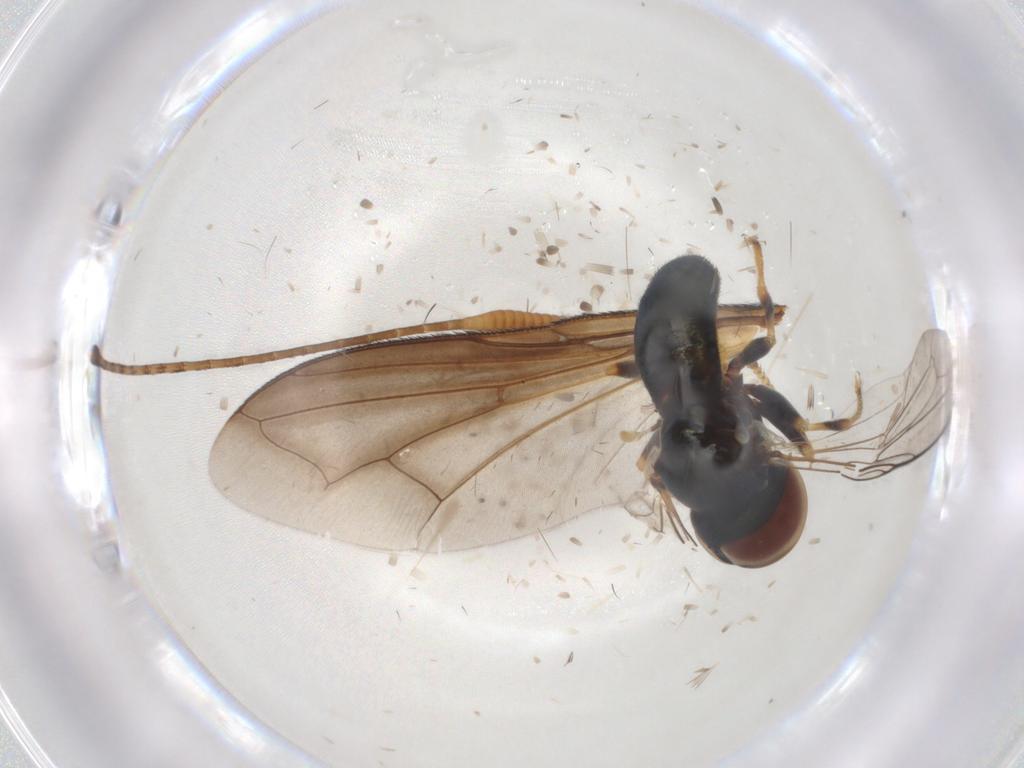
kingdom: Animalia
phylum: Arthropoda
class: Insecta
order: Diptera
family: Pipunculidae
